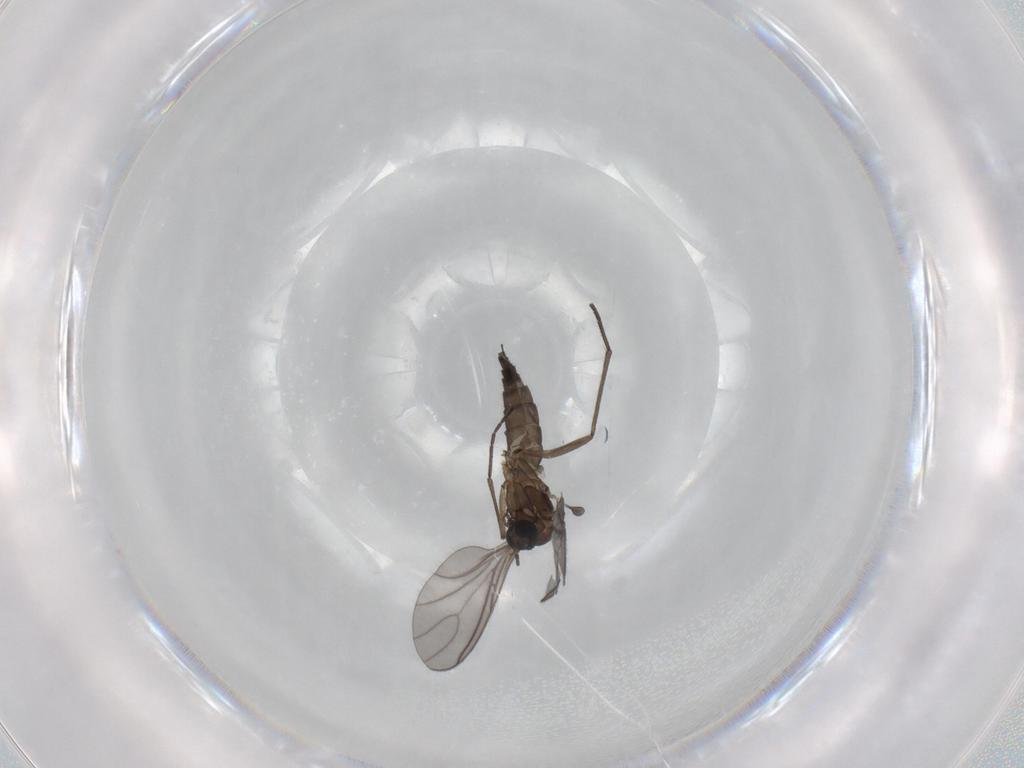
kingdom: Animalia
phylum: Arthropoda
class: Insecta
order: Diptera
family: Sciaridae
